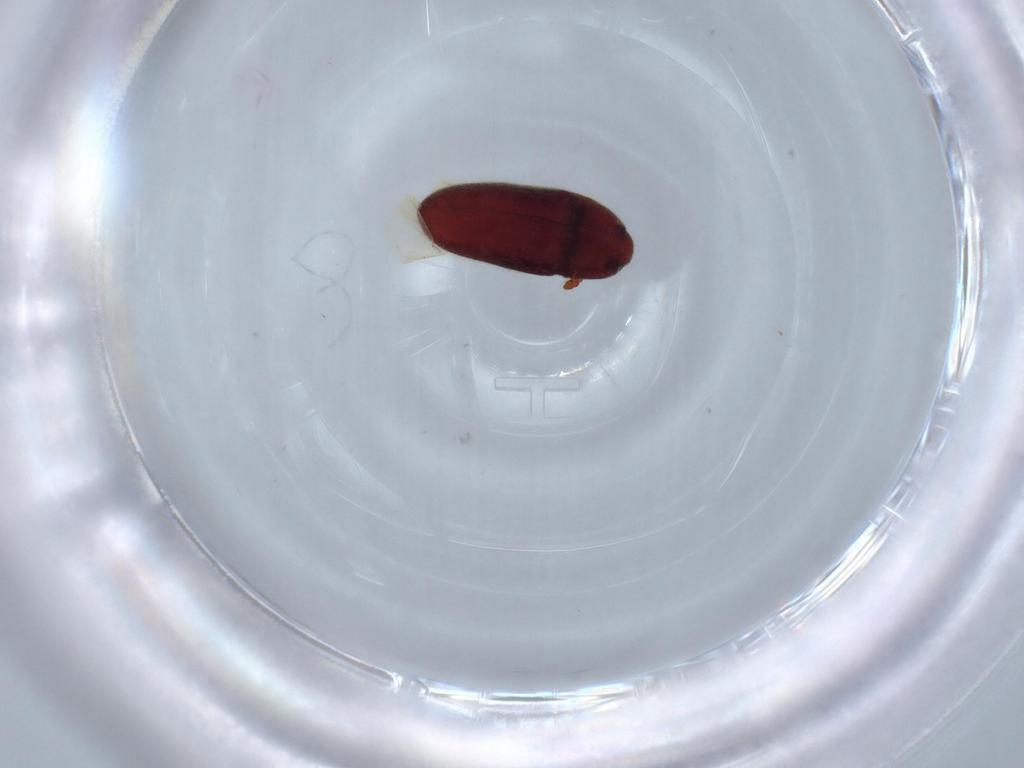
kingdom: Animalia
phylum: Arthropoda
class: Insecta
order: Coleoptera
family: Throscidae
